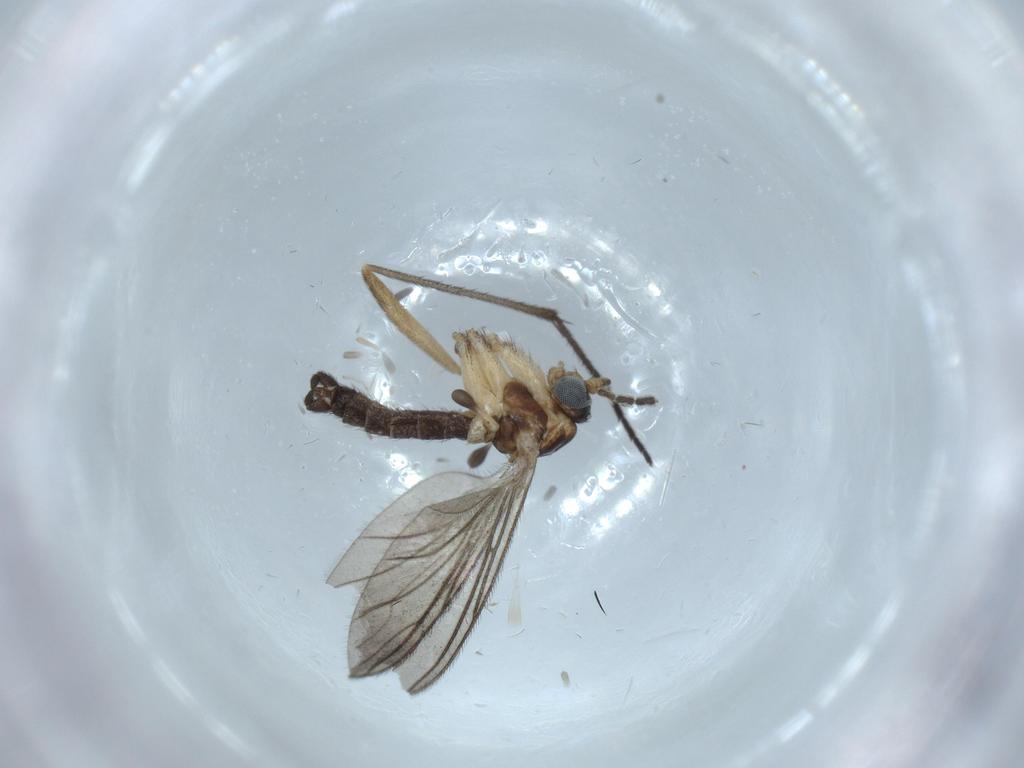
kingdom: Animalia
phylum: Arthropoda
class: Insecta
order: Diptera
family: Sciaridae
